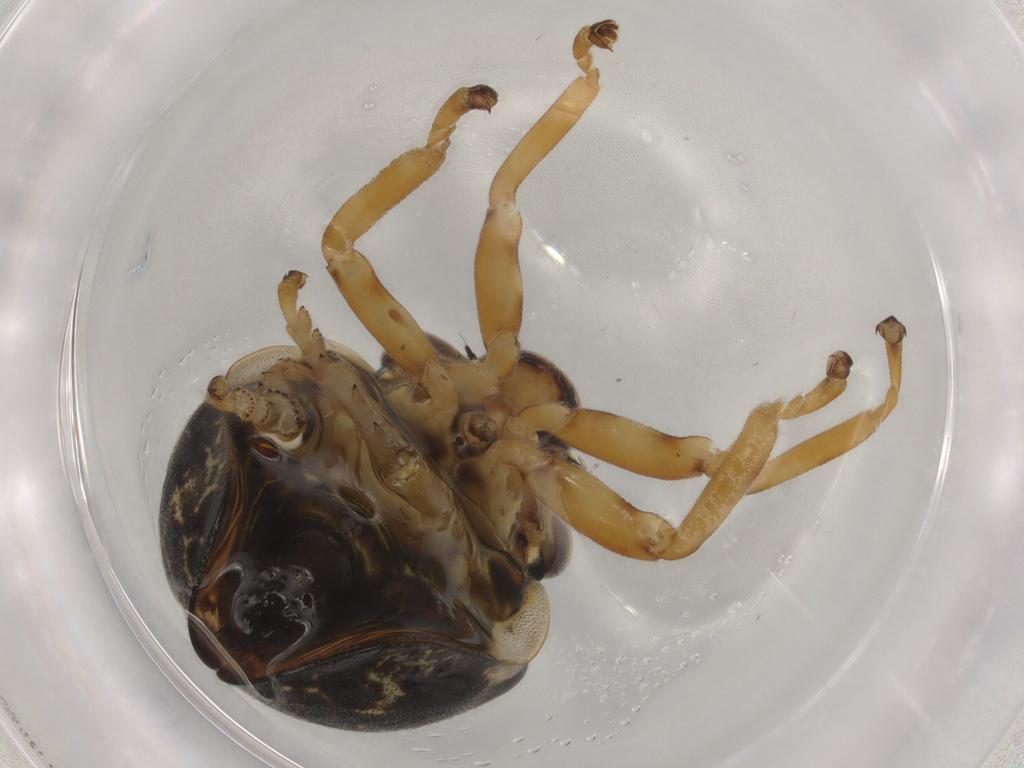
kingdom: Animalia
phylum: Arthropoda
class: Insecta
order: Hemiptera
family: Aphrophoridae
